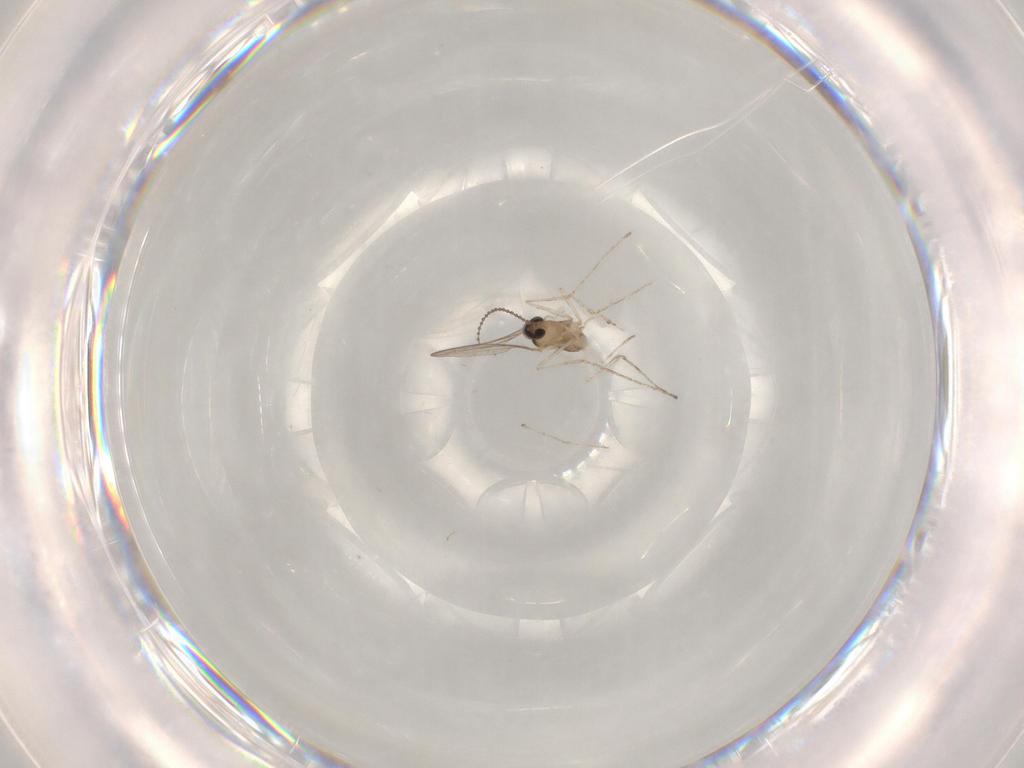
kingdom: Animalia
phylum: Arthropoda
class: Insecta
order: Diptera
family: Cecidomyiidae
